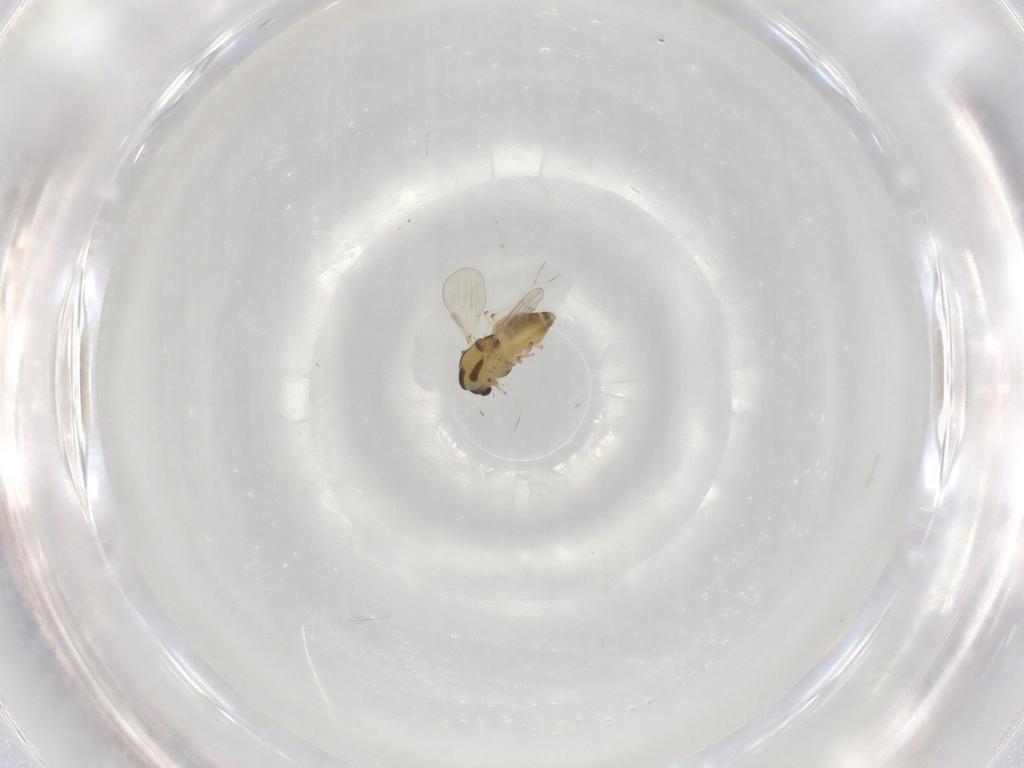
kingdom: Animalia
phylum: Arthropoda
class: Insecta
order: Diptera
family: Chironomidae
